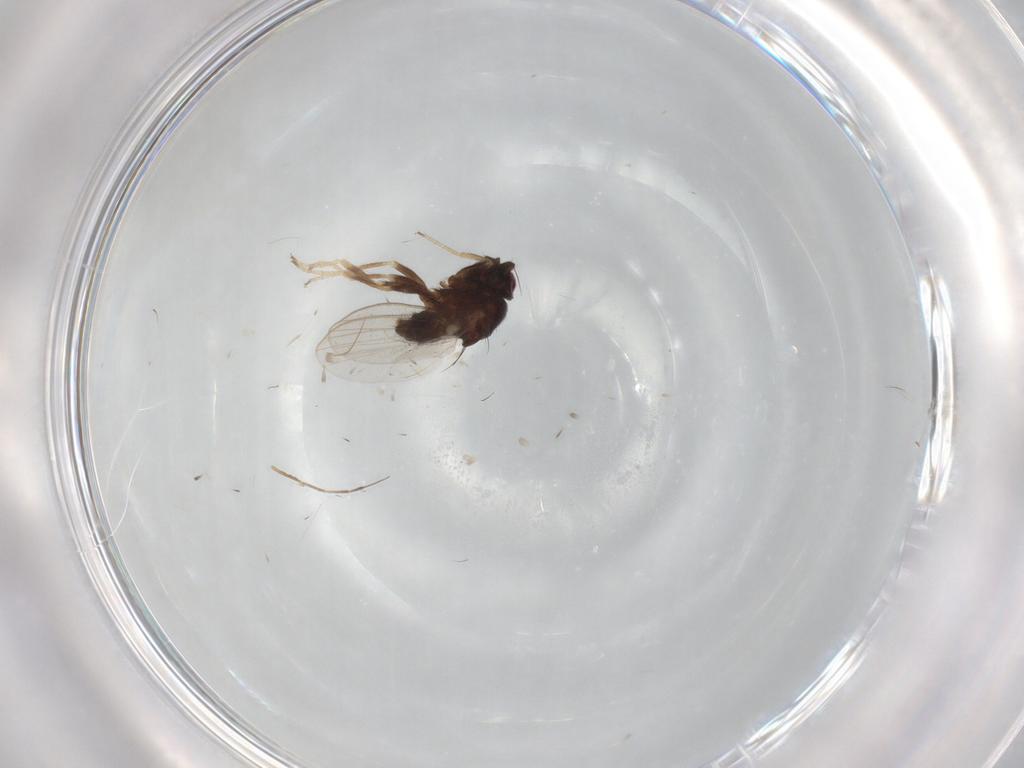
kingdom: Animalia
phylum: Arthropoda
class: Insecta
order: Diptera
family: Milichiidae
